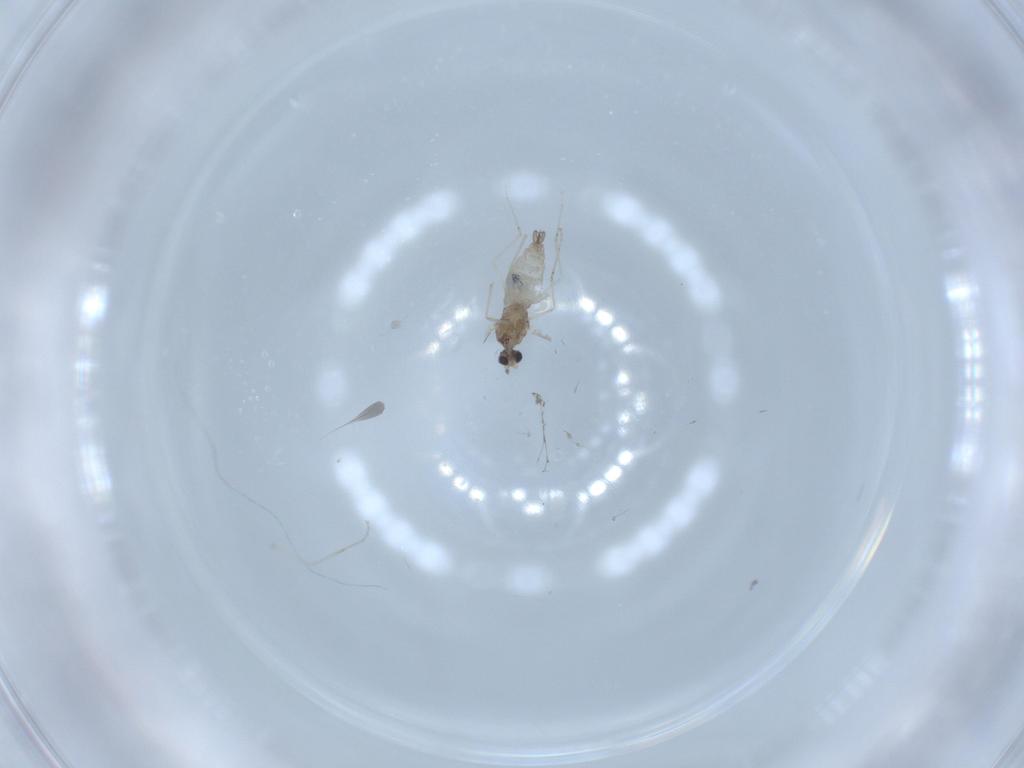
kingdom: Animalia
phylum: Arthropoda
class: Insecta
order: Diptera
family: Cecidomyiidae
